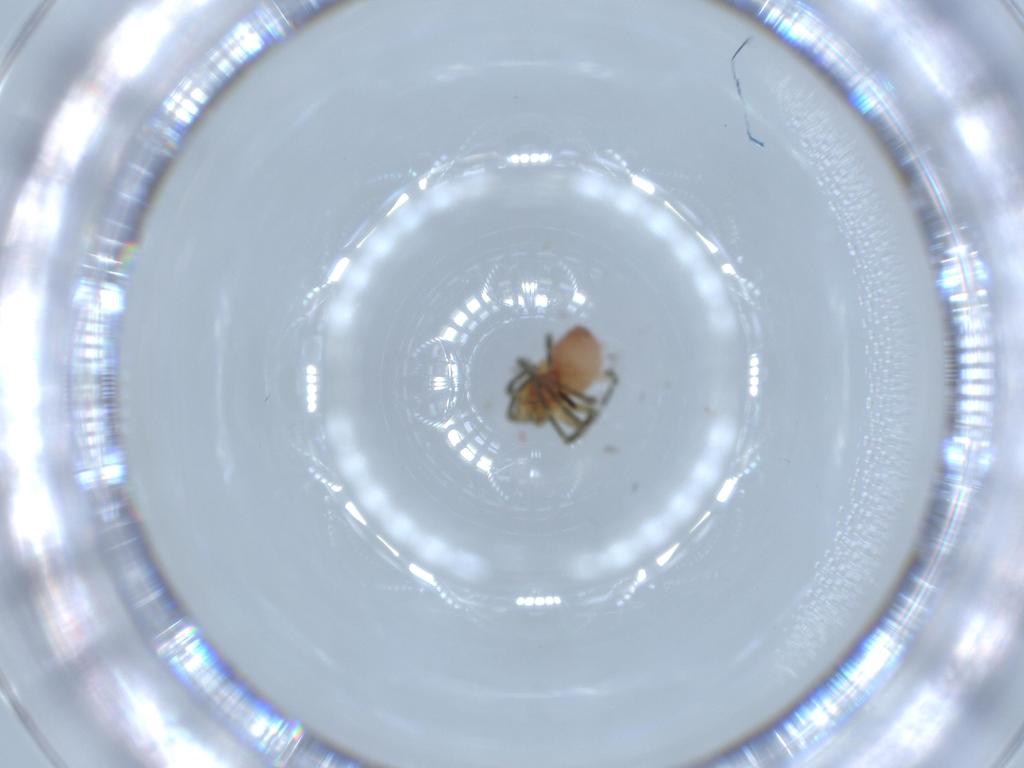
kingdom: Animalia
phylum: Arthropoda
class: Arachnida
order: Araneae
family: Linyphiidae
